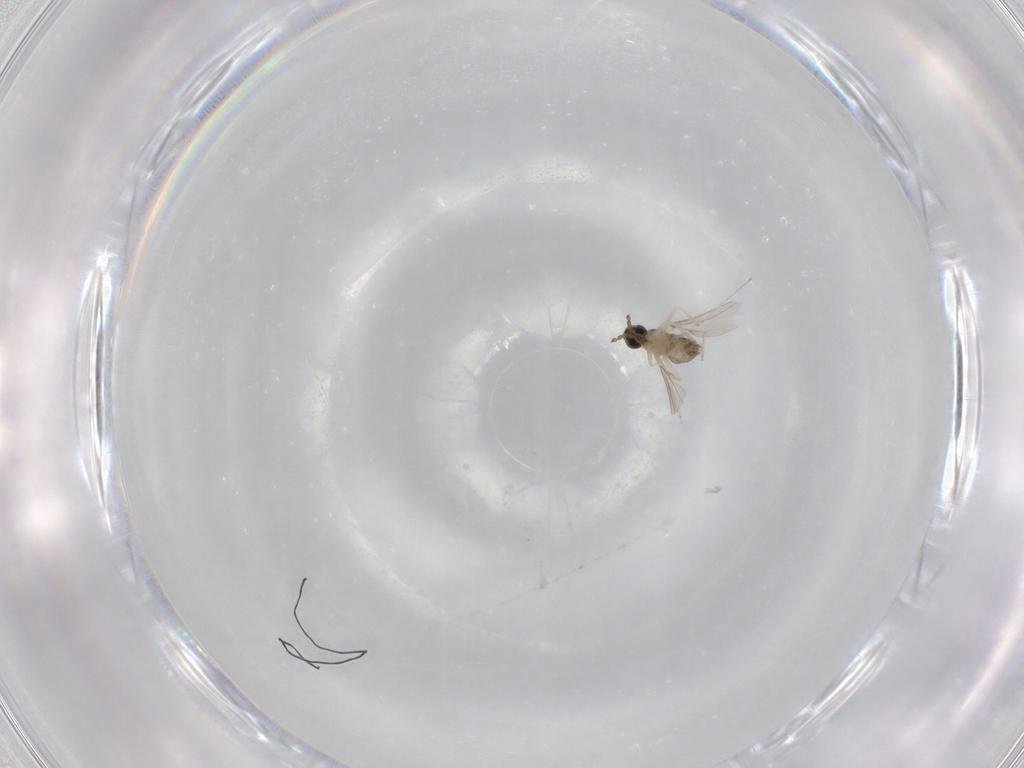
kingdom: Animalia
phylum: Arthropoda
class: Insecta
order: Diptera
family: Cecidomyiidae
